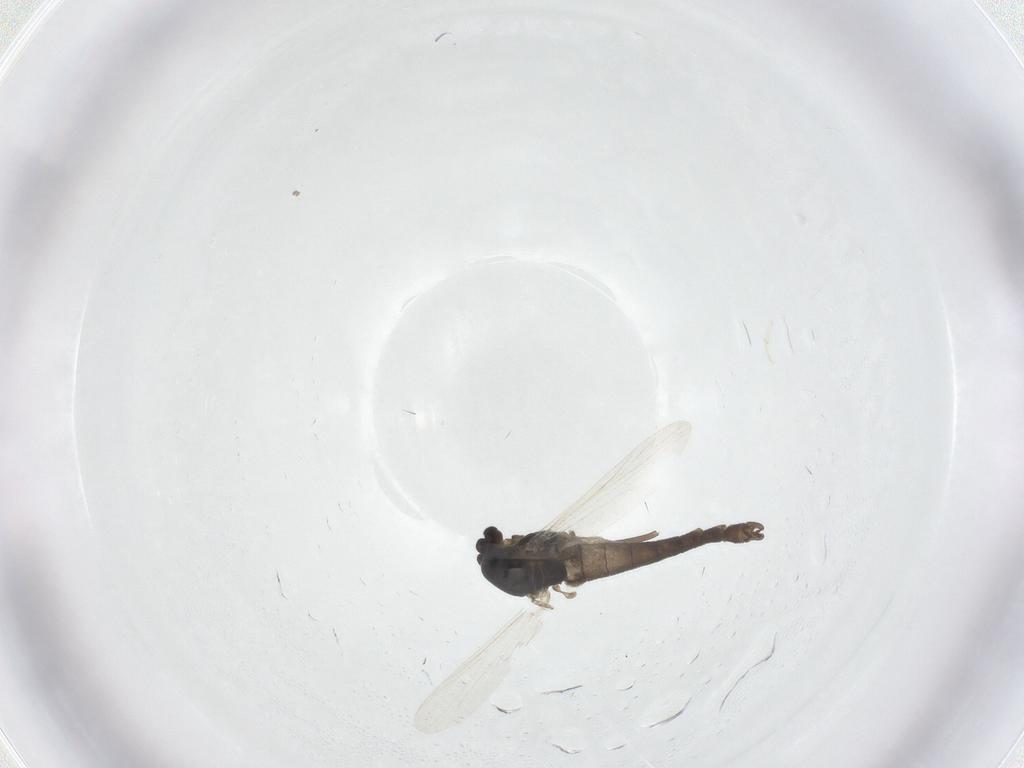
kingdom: Animalia
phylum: Arthropoda
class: Insecta
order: Diptera
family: Chironomidae
